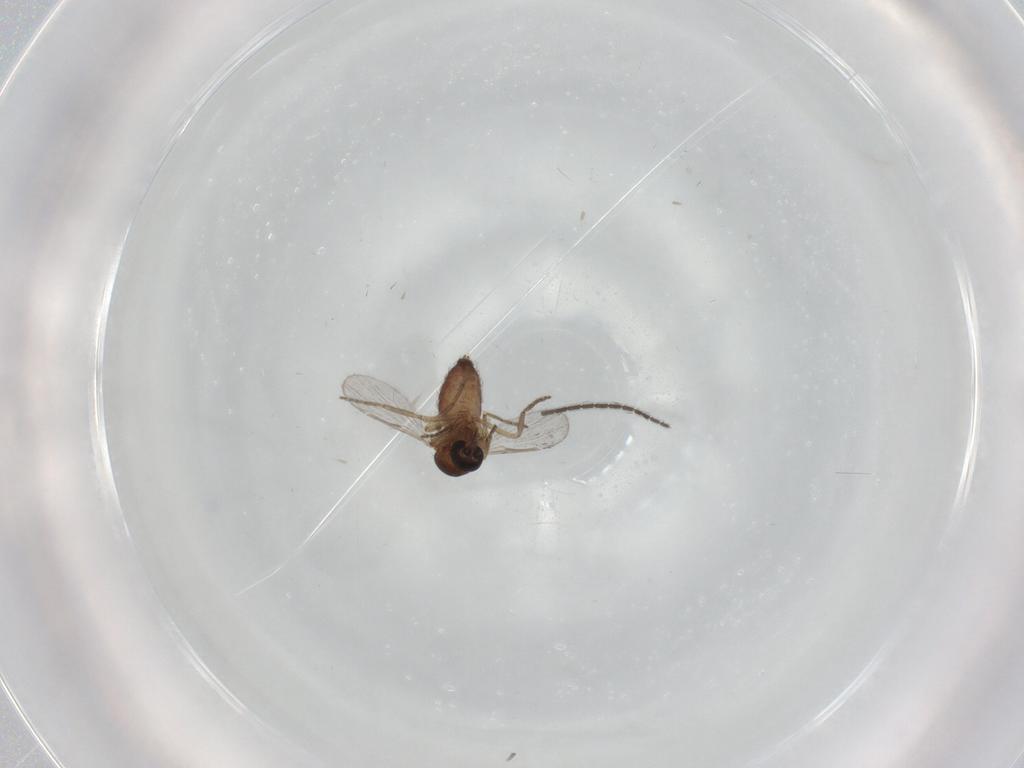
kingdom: Animalia
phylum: Arthropoda
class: Insecta
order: Diptera
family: Ceratopogonidae
